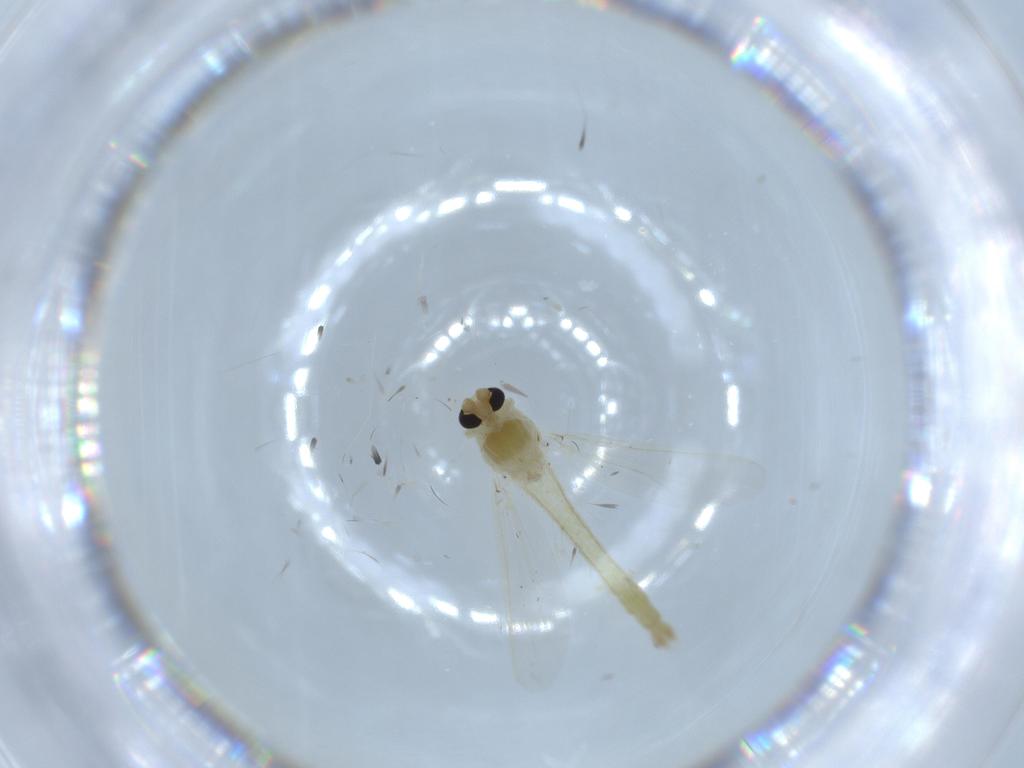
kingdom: Animalia
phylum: Arthropoda
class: Insecta
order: Diptera
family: Chironomidae
